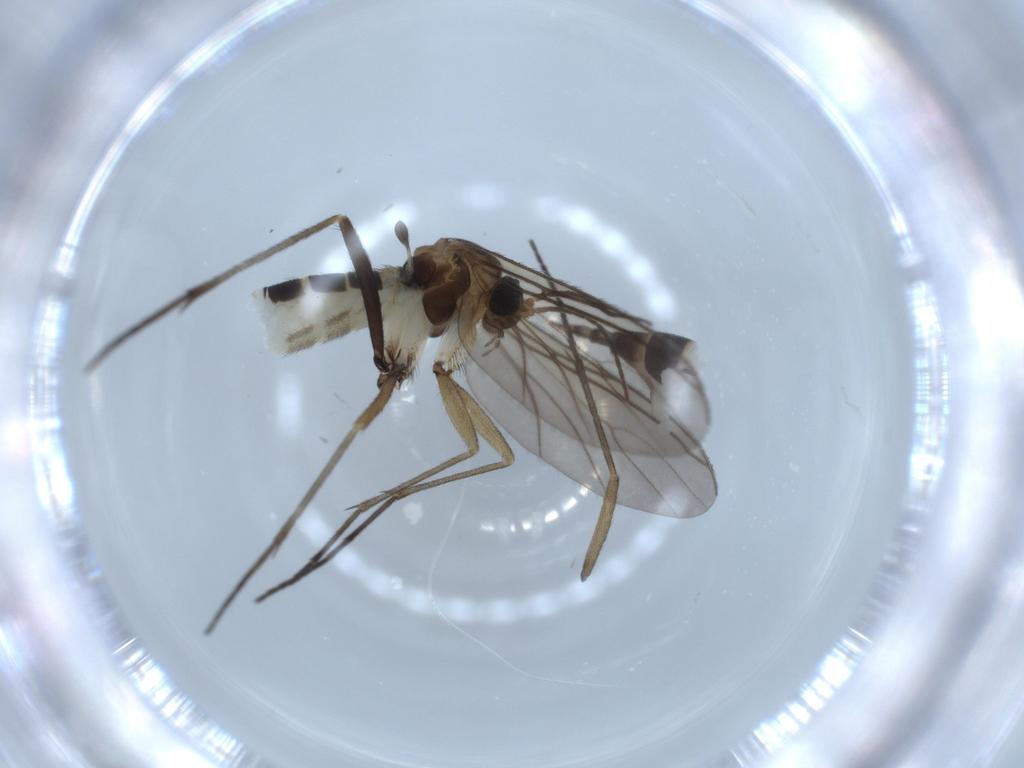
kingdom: Animalia
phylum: Arthropoda
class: Insecta
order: Diptera
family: Sciaridae
